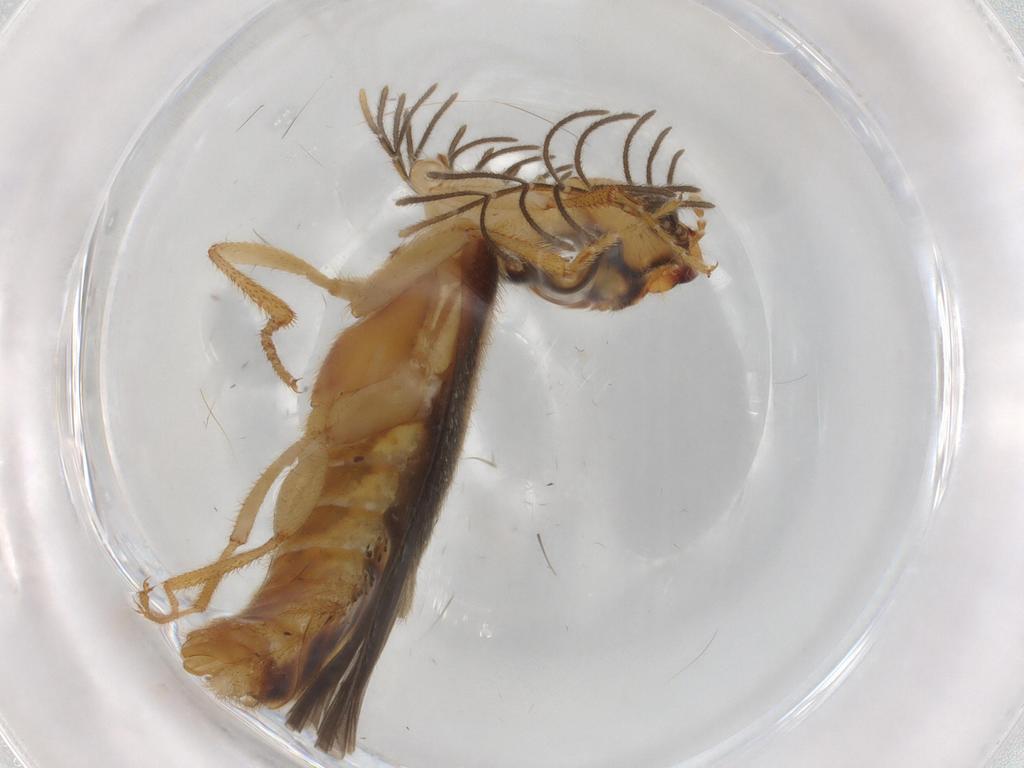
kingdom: Animalia
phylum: Arthropoda
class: Insecta
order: Coleoptera
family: Phengodidae
